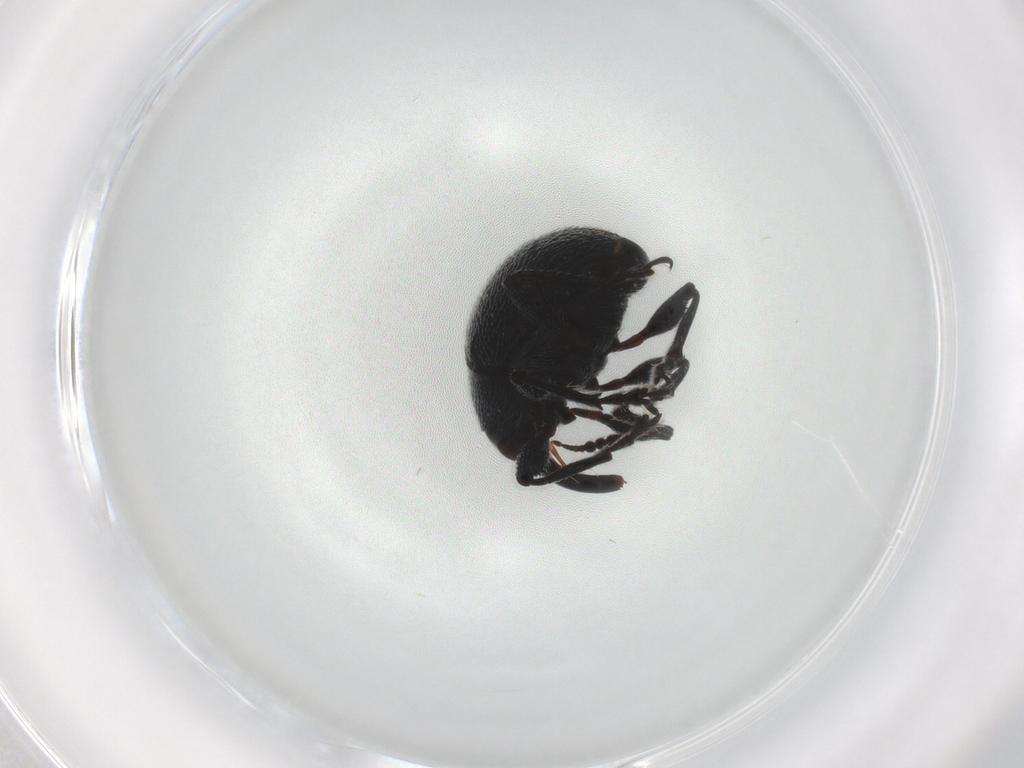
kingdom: Animalia
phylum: Arthropoda
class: Insecta
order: Coleoptera
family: Brentidae
